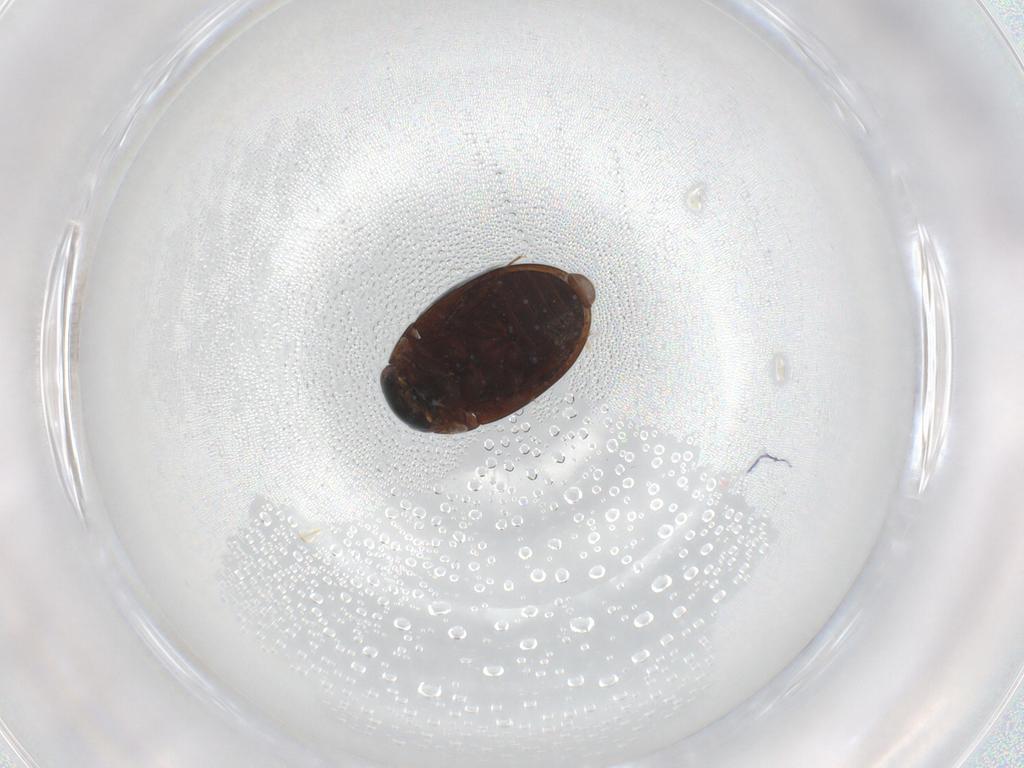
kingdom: Animalia
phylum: Arthropoda
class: Insecta
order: Coleoptera
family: Hydrophilidae
